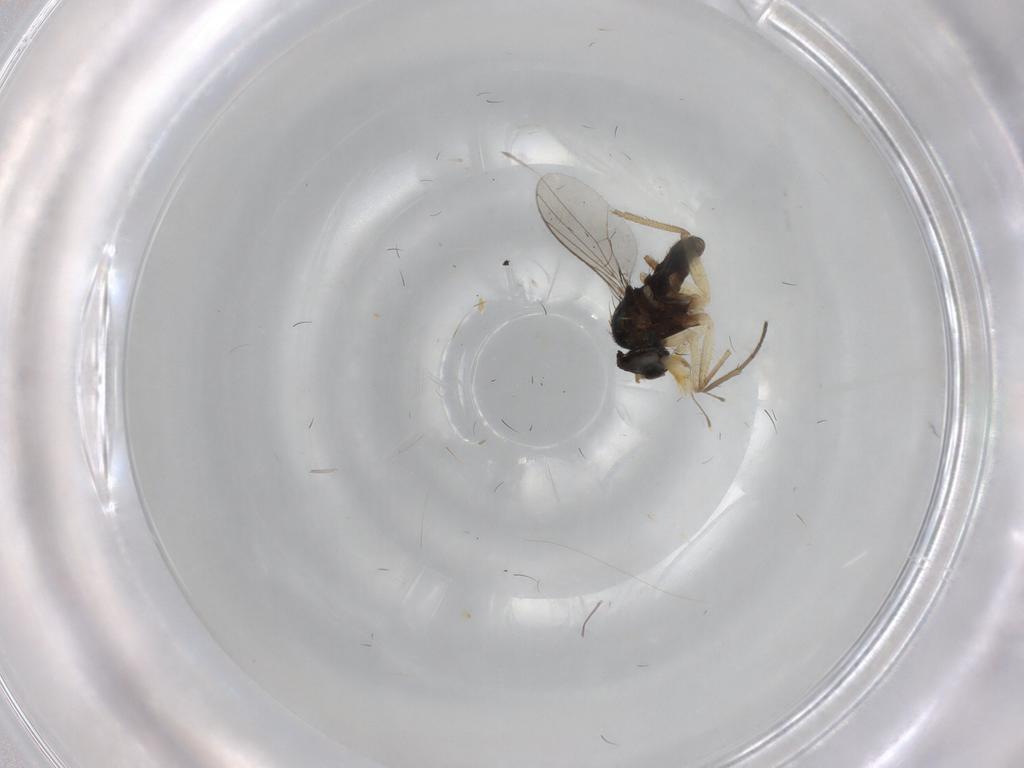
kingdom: Animalia
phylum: Arthropoda
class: Insecta
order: Diptera
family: Dolichopodidae
